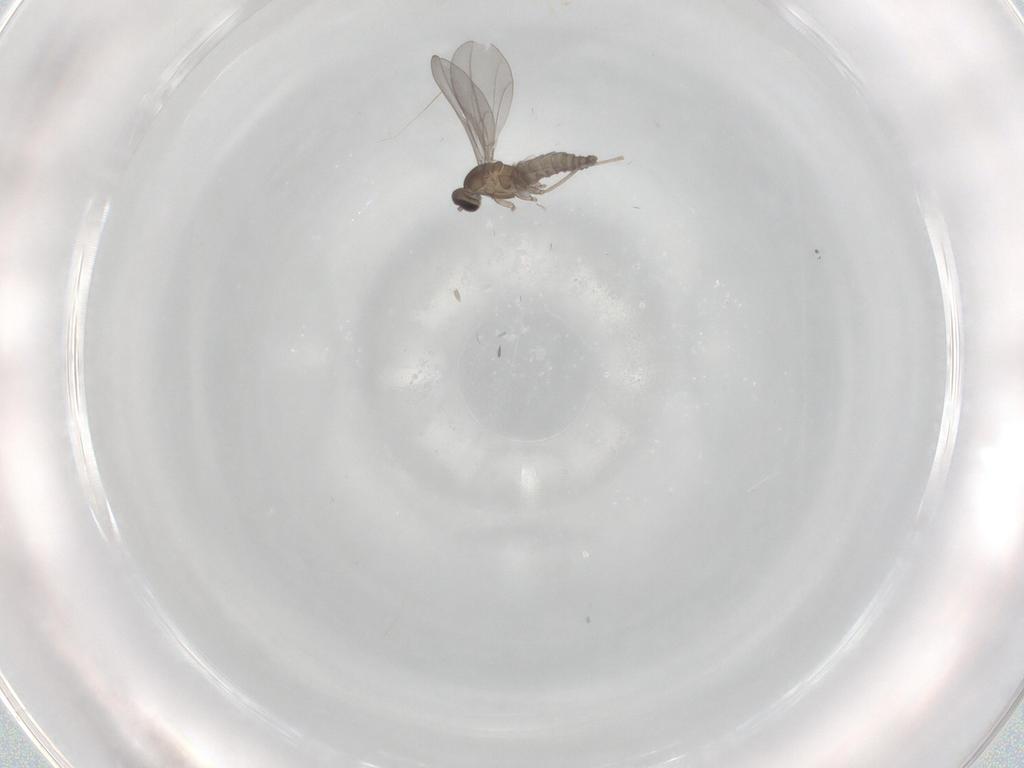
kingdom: Animalia
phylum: Arthropoda
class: Insecta
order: Diptera
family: Cecidomyiidae
